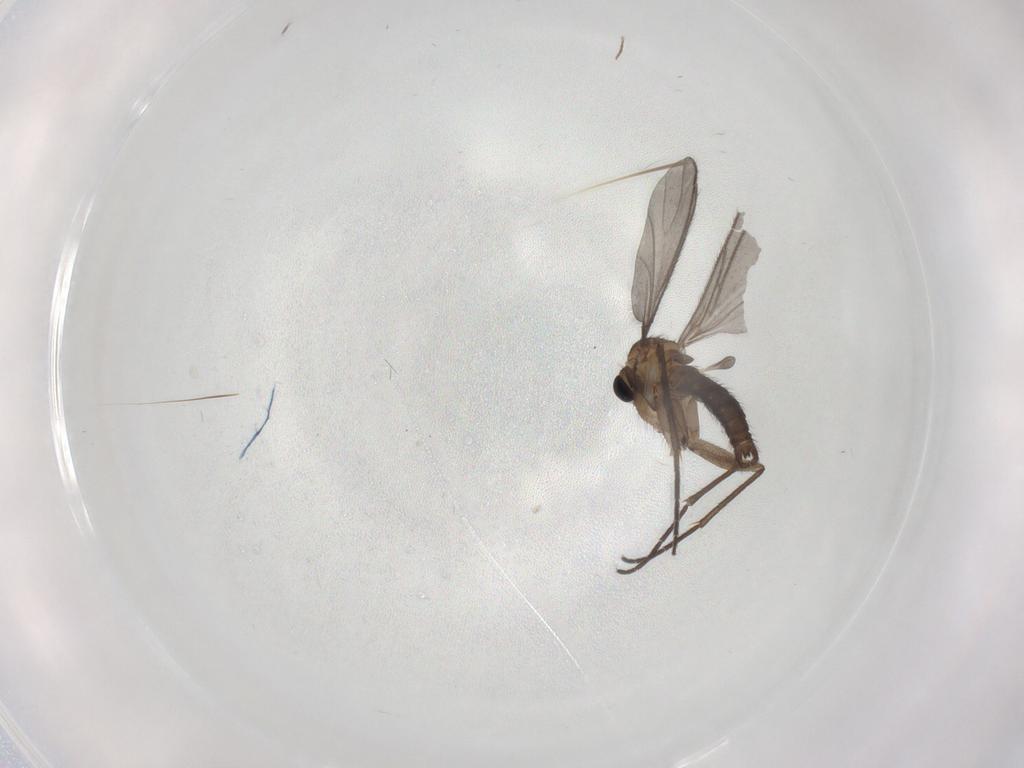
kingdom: Animalia
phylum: Arthropoda
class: Insecta
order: Diptera
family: Sciaridae
